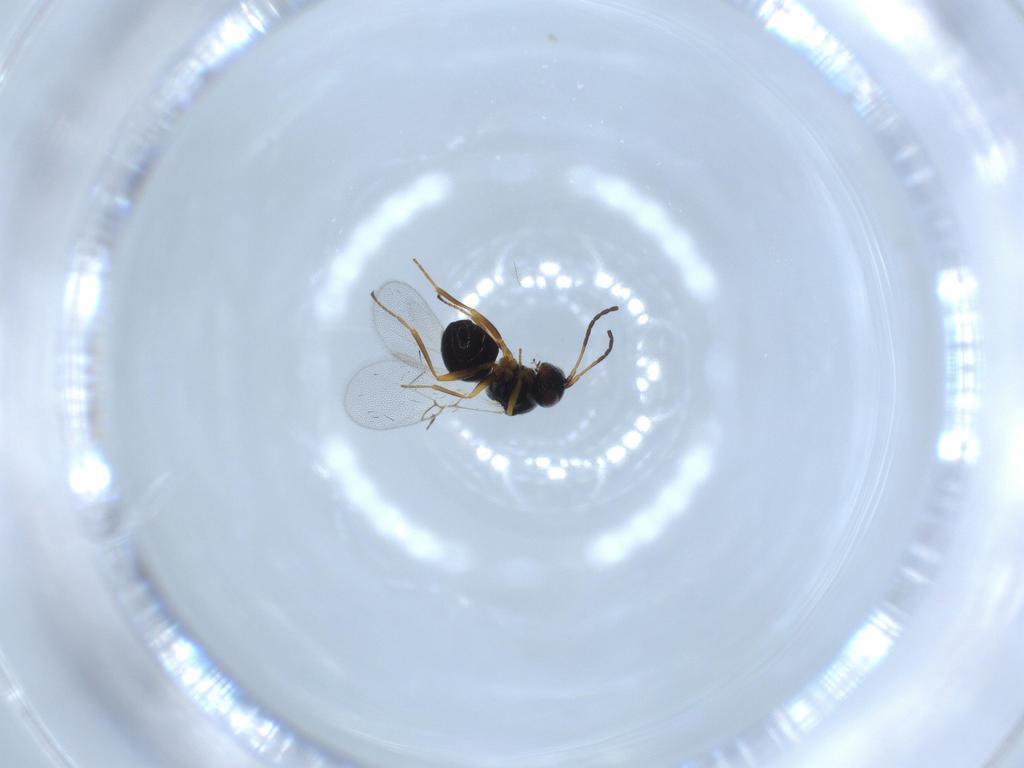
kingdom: Animalia
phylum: Arthropoda
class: Insecta
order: Hymenoptera
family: Figitidae
